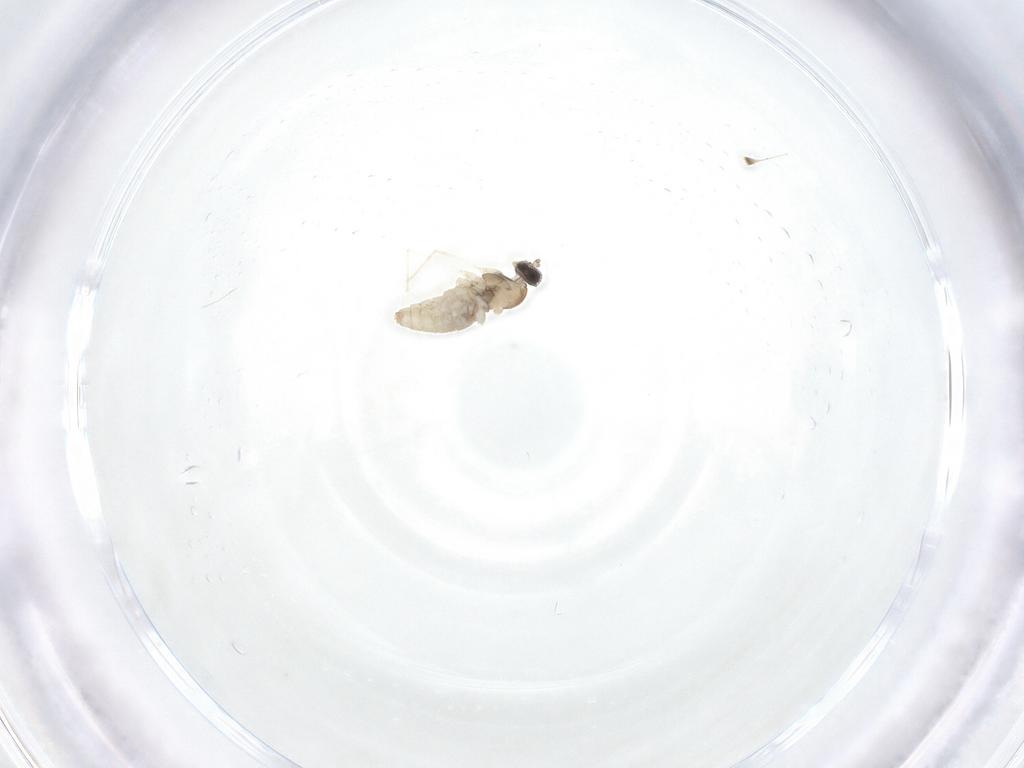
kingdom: Animalia
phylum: Arthropoda
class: Insecta
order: Diptera
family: Cecidomyiidae
